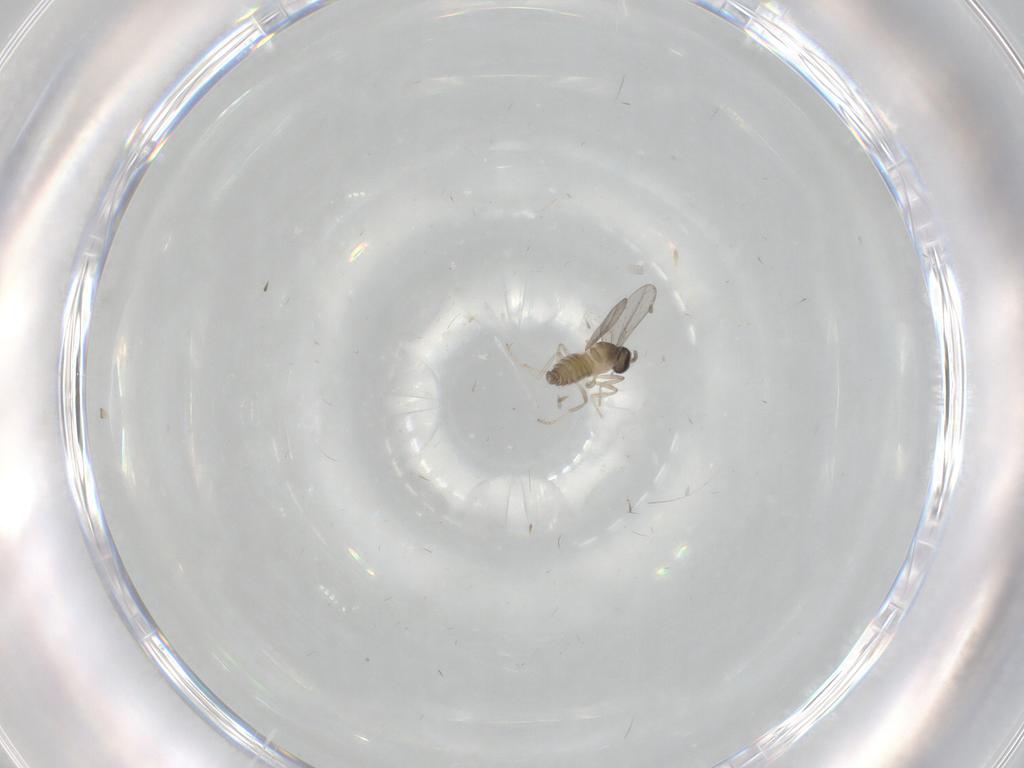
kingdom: Animalia
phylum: Arthropoda
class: Insecta
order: Diptera
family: Cecidomyiidae
